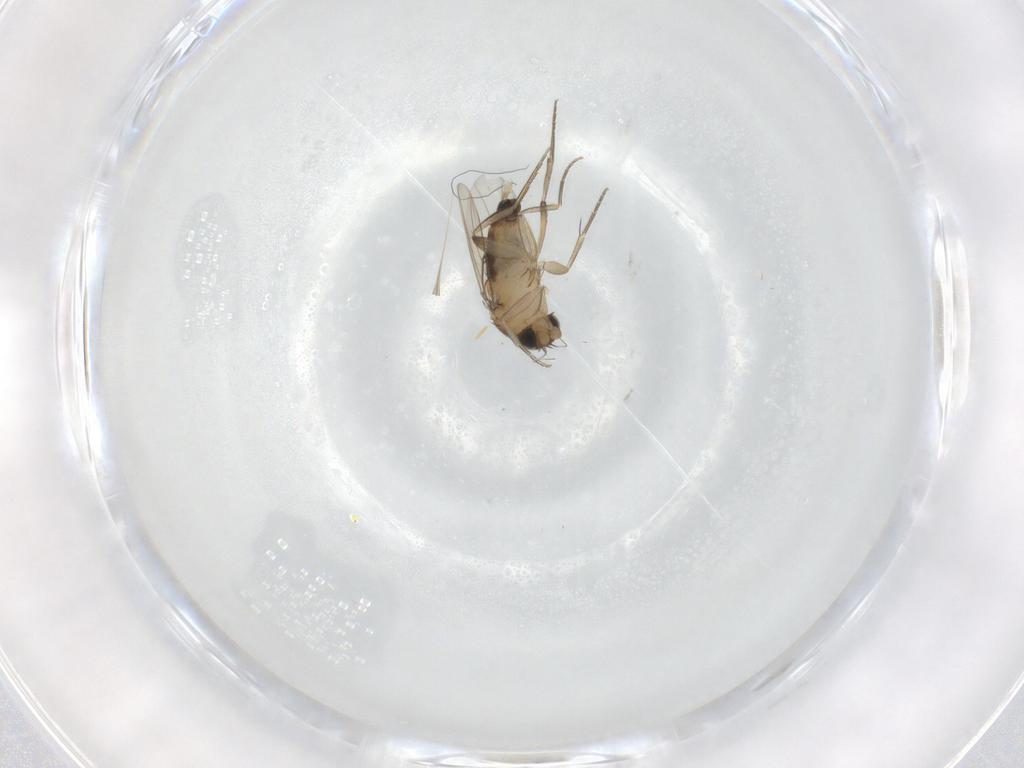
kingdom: Animalia
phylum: Arthropoda
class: Insecta
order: Diptera
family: Phoridae
